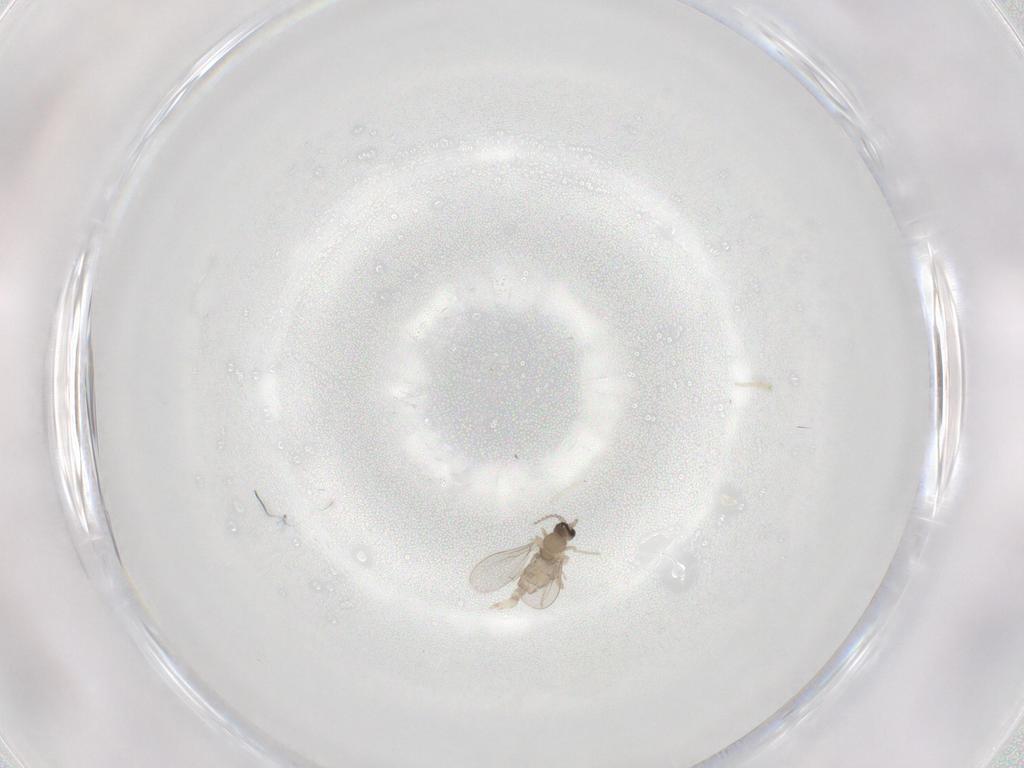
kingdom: Animalia
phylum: Arthropoda
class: Insecta
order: Diptera
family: Cecidomyiidae
